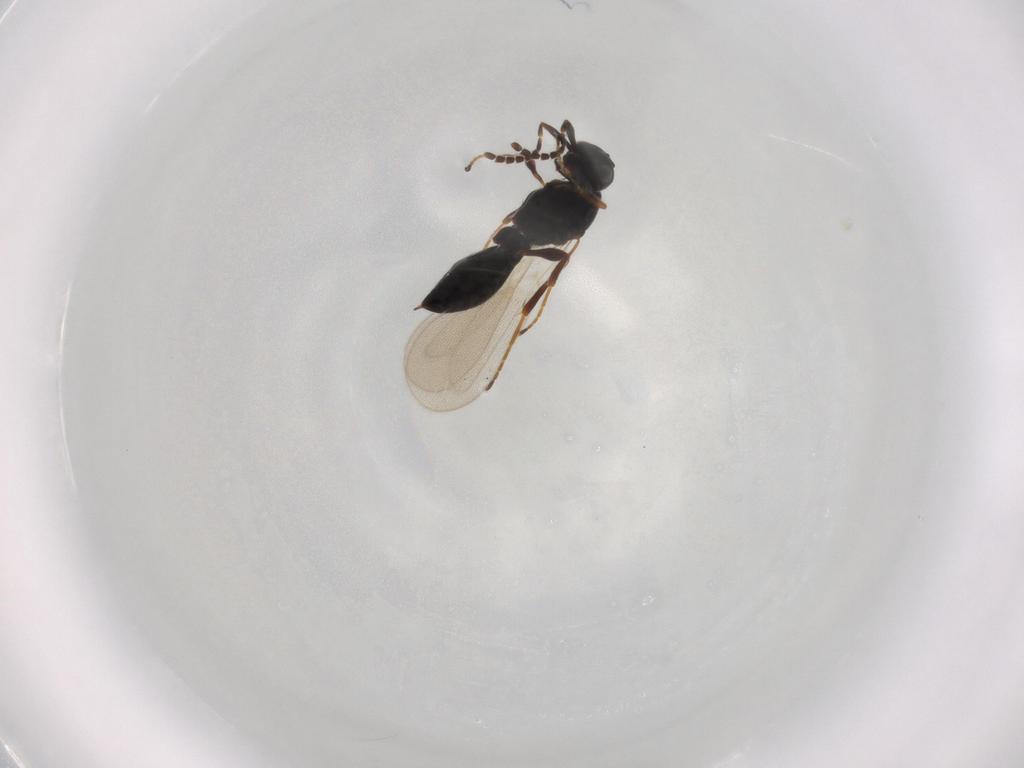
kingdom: Animalia
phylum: Arthropoda
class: Insecta
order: Diptera
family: Mythicomyiidae
